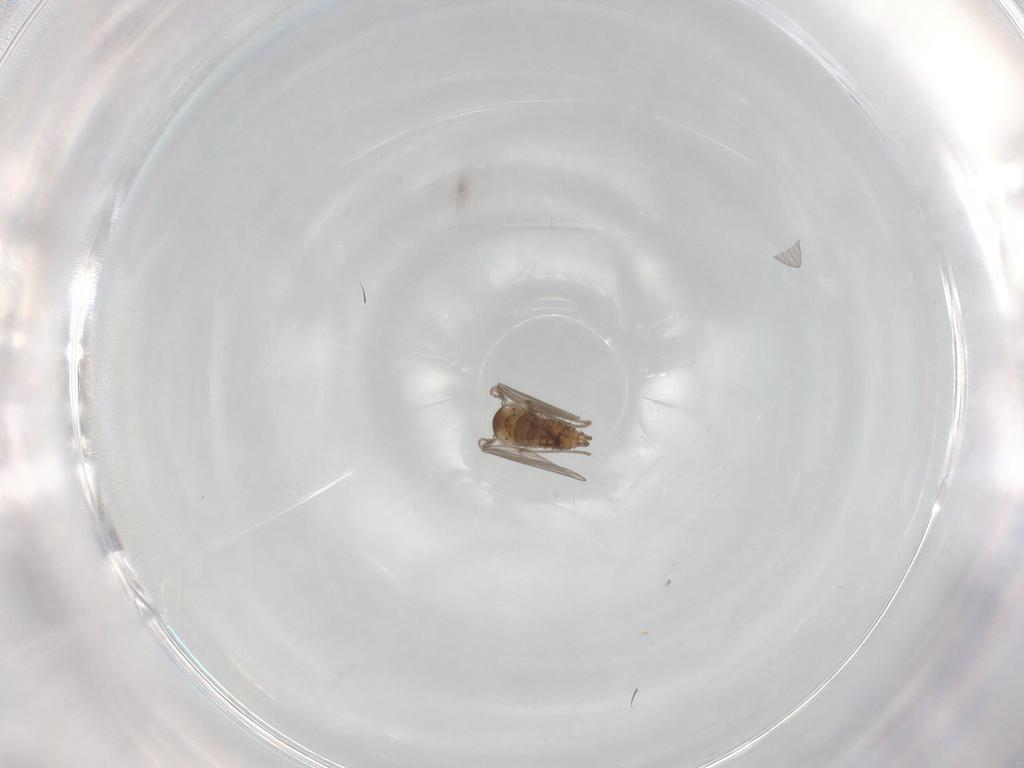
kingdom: Animalia
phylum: Arthropoda
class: Insecta
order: Diptera
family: Psychodidae
